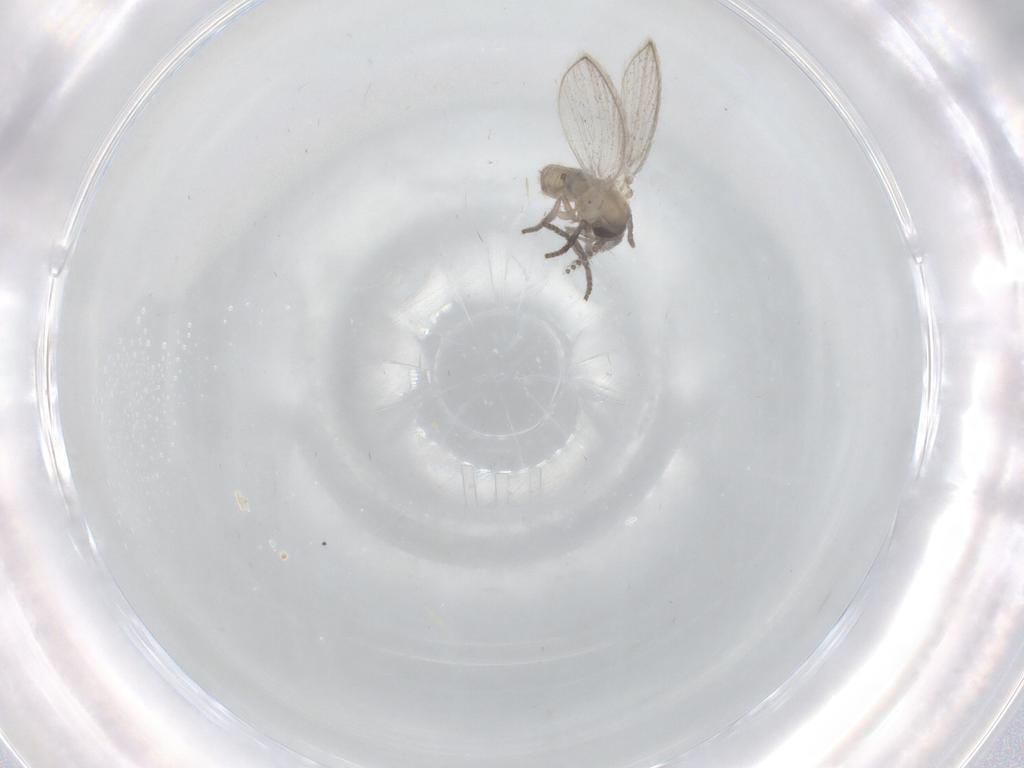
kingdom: Animalia
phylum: Arthropoda
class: Insecta
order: Diptera
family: Psychodidae
